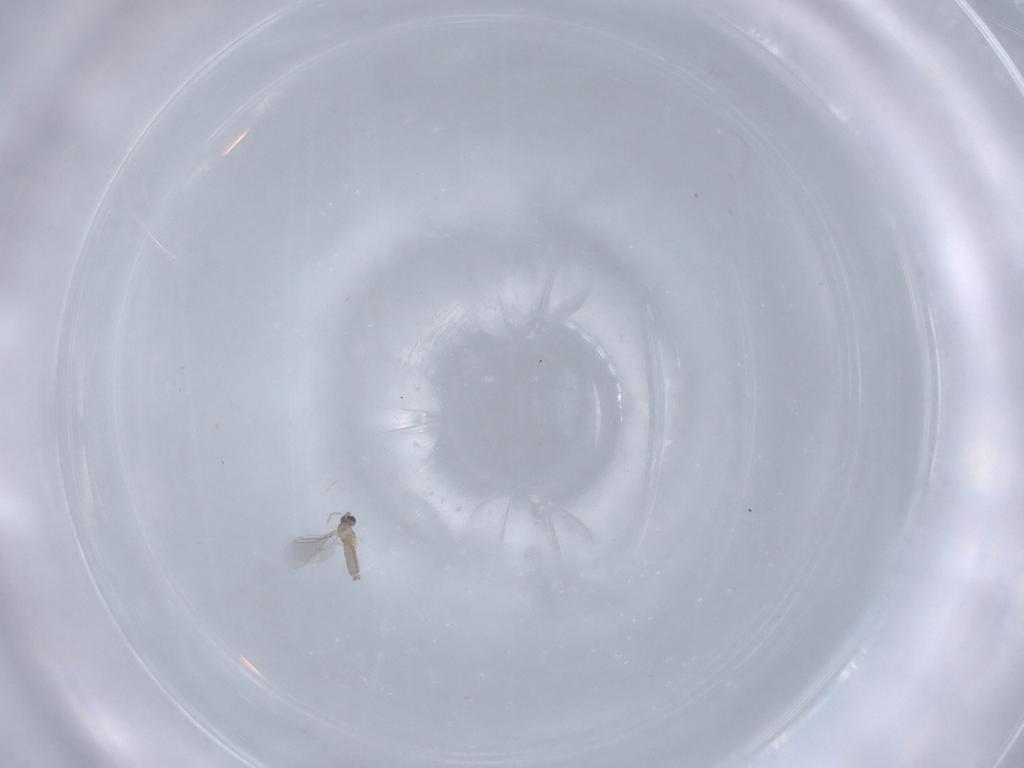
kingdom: Animalia
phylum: Arthropoda
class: Insecta
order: Diptera
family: Cecidomyiidae
